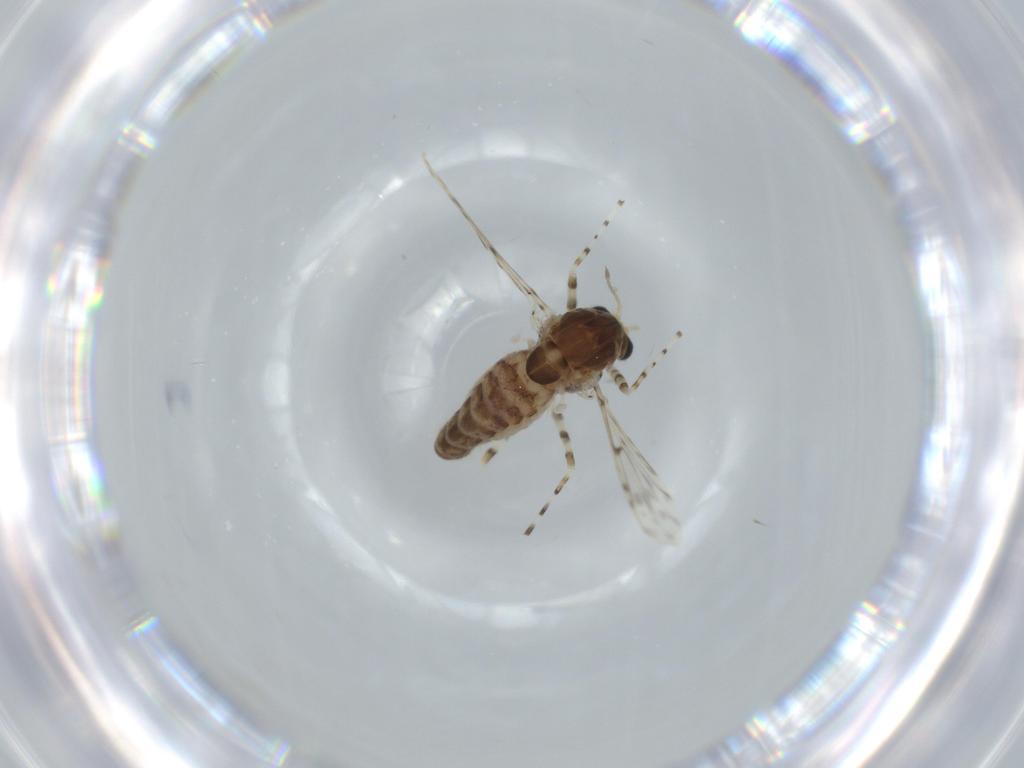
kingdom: Animalia
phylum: Arthropoda
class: Insecta
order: Diptera
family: Chironomidae
